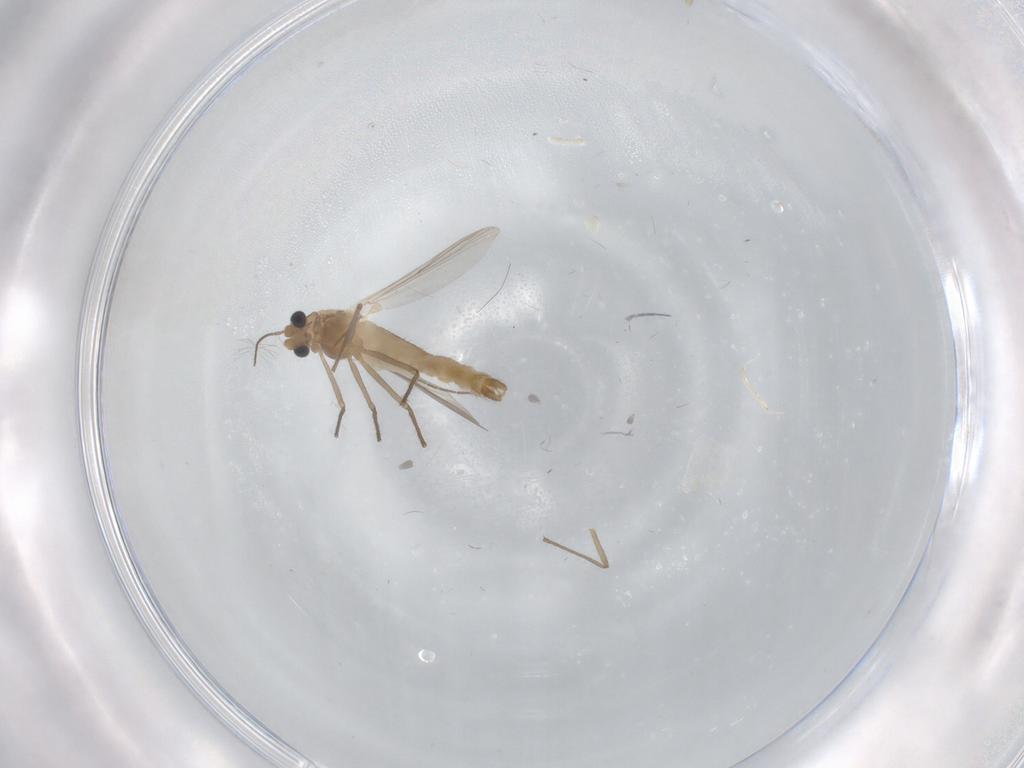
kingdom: Animalia
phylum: Arthropoda
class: Insecta
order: Diptera
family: Chironomidae
